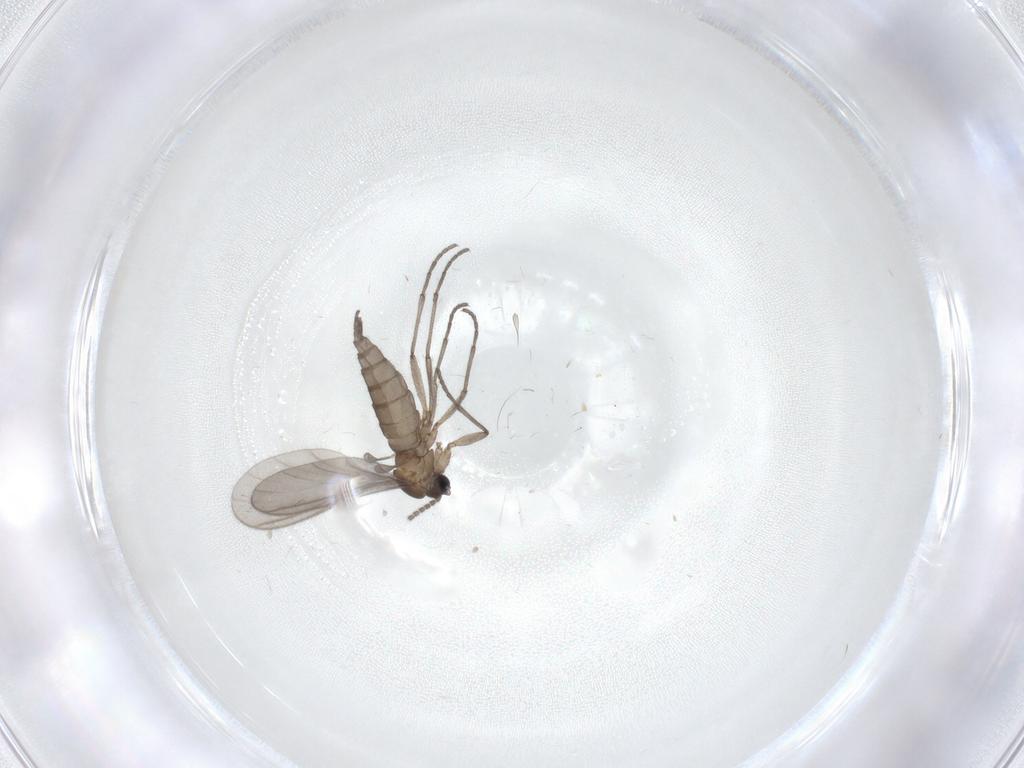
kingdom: Animalia
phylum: Arthropoda
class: Insecta
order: Diptera
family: Sciaridae
